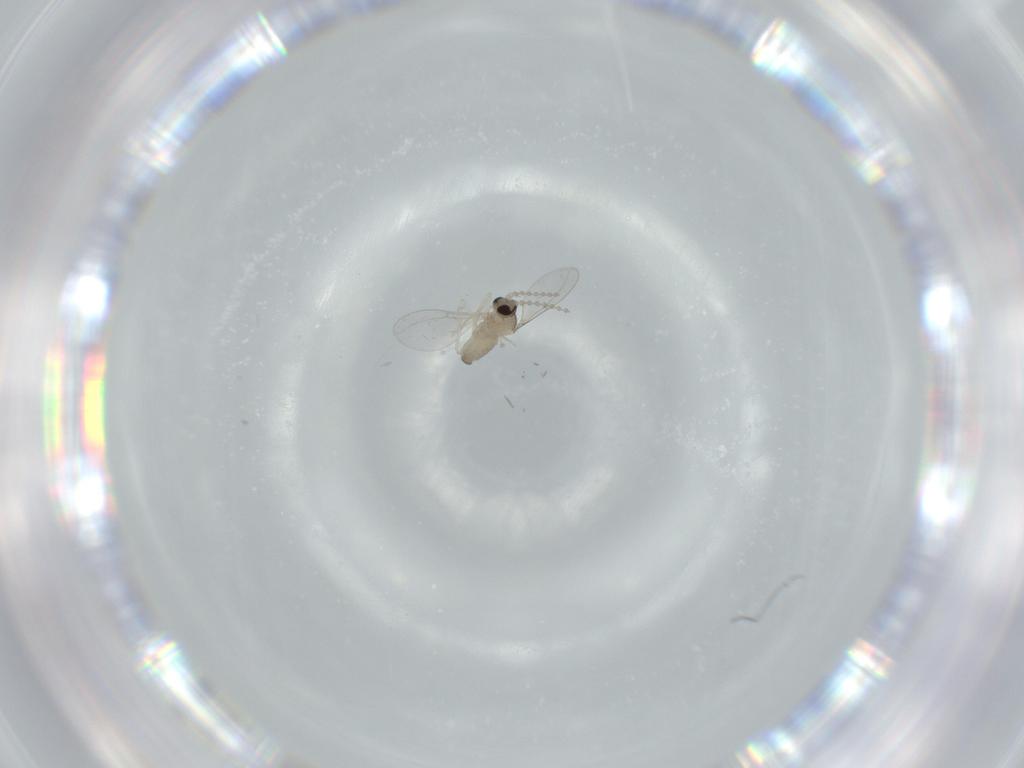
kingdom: Animalia
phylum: Arthropoda
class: Insecta
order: Diptera
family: Cecidomyiidae
